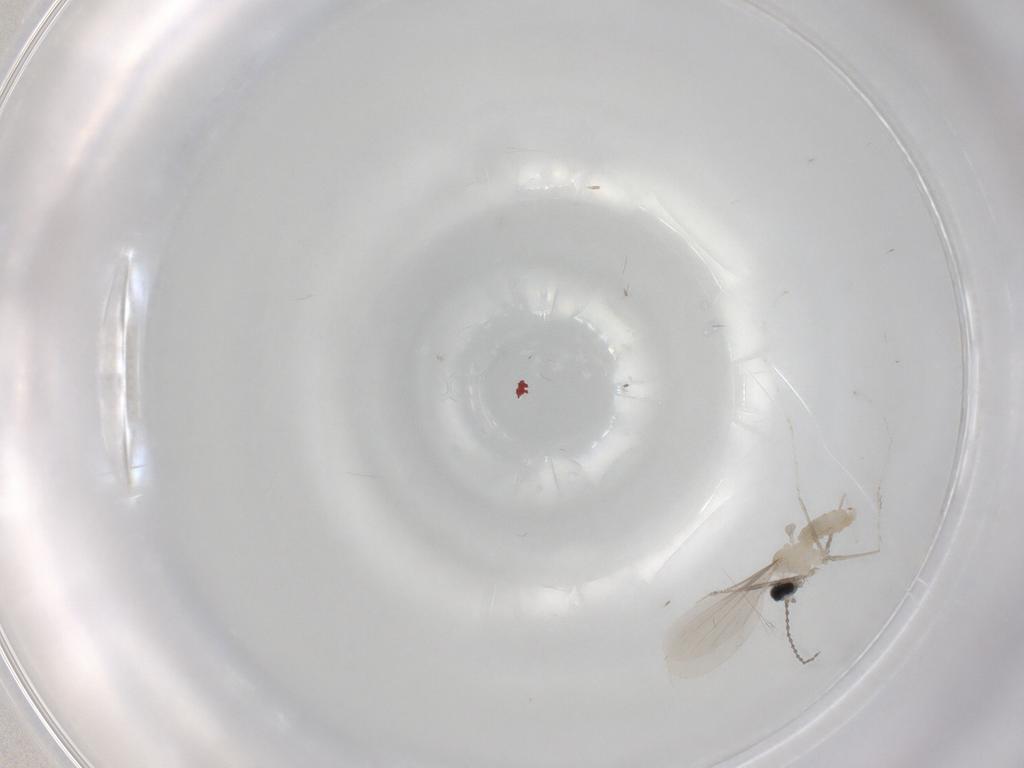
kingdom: Animalia
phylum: Arthropoda
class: Insecta
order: Diptera
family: Cecidomyiidae
